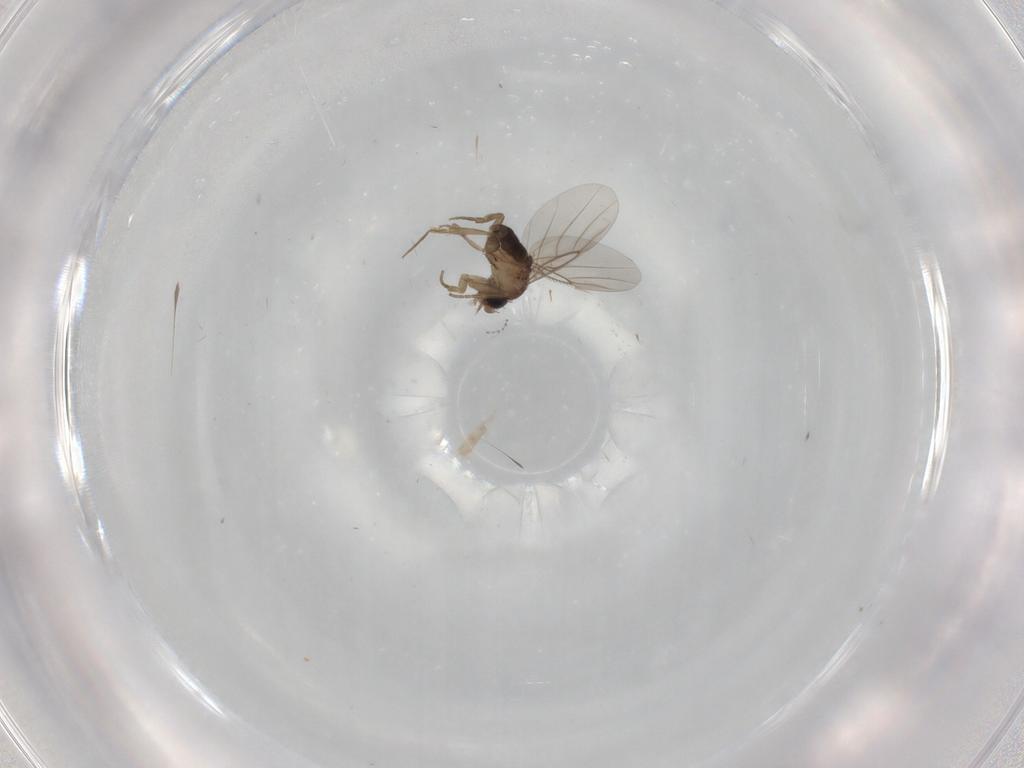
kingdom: Animalia
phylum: Arthropoda
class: Insecta
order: Diptera
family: Cecidomyiidae
